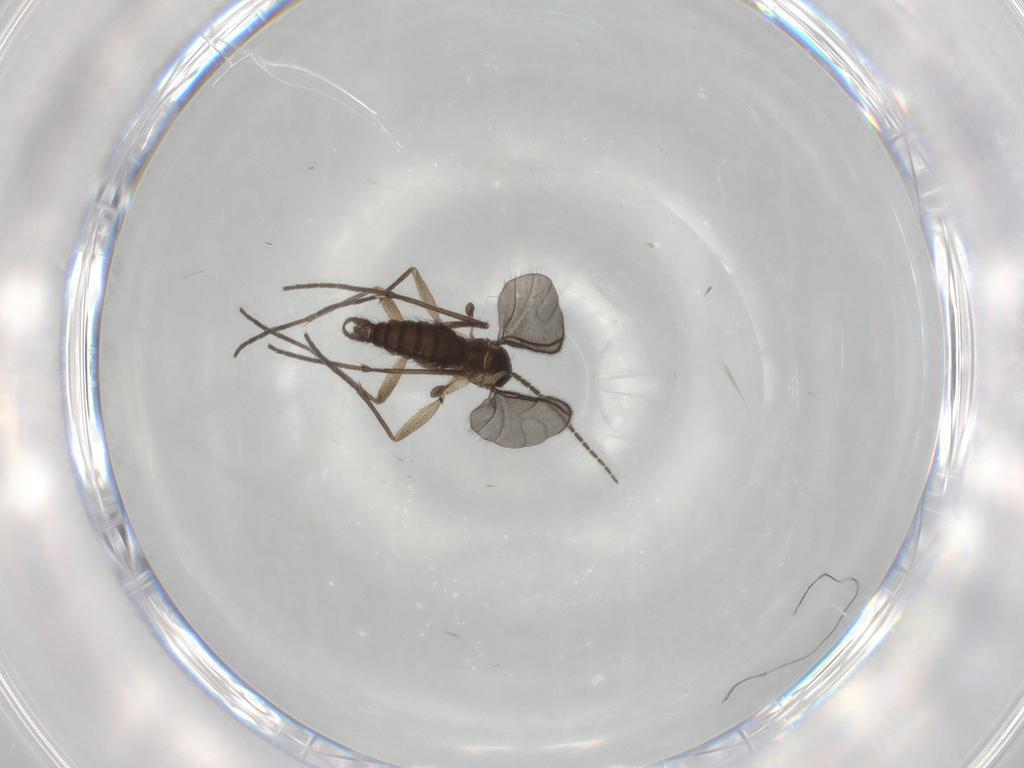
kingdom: Animalia
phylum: Arthropoda
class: Insecta
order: Diptera
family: Sciaridae
